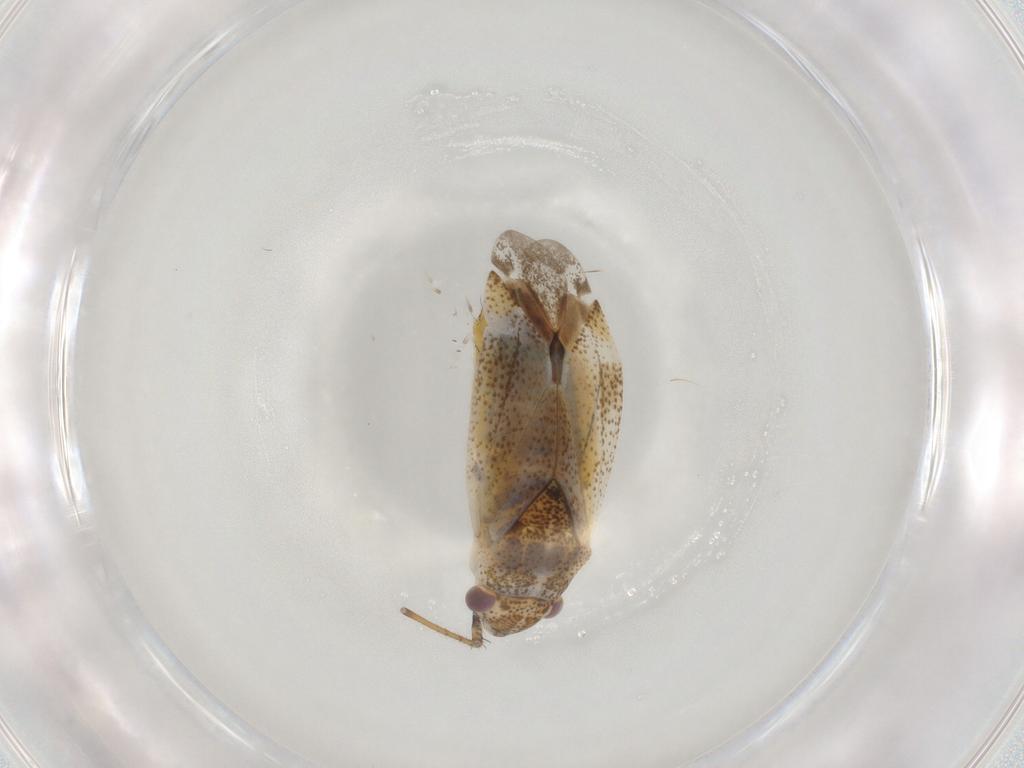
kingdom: Animalia
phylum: Arthropoda
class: Insecta
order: Hemiptera
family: Miridae
